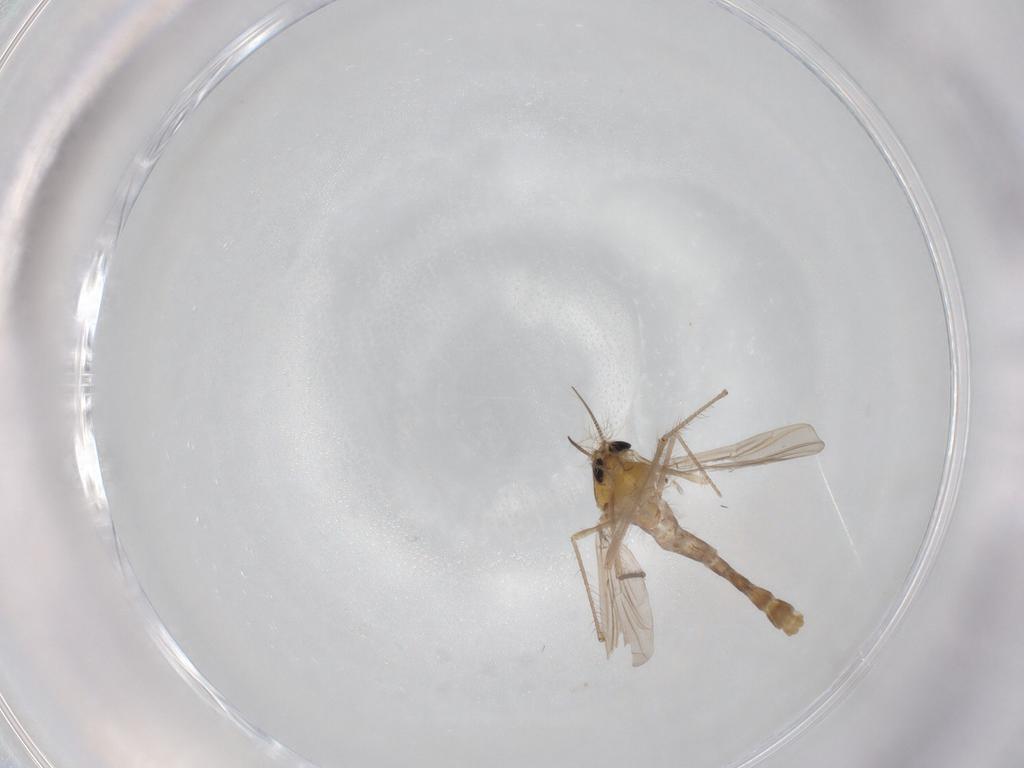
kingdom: Animalia
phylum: Arthropoda
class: Insecta
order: Diptera
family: Chironomidae
